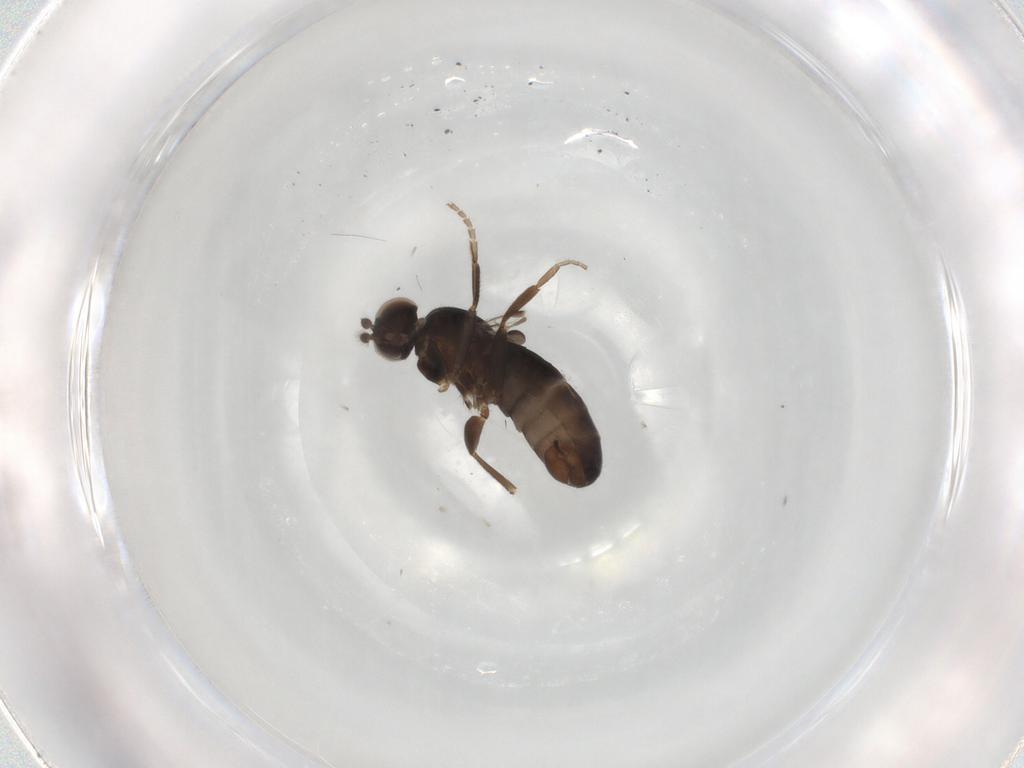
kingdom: Animalia
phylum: Arthropoda
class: Insecta
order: Diptera
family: Phoridae
